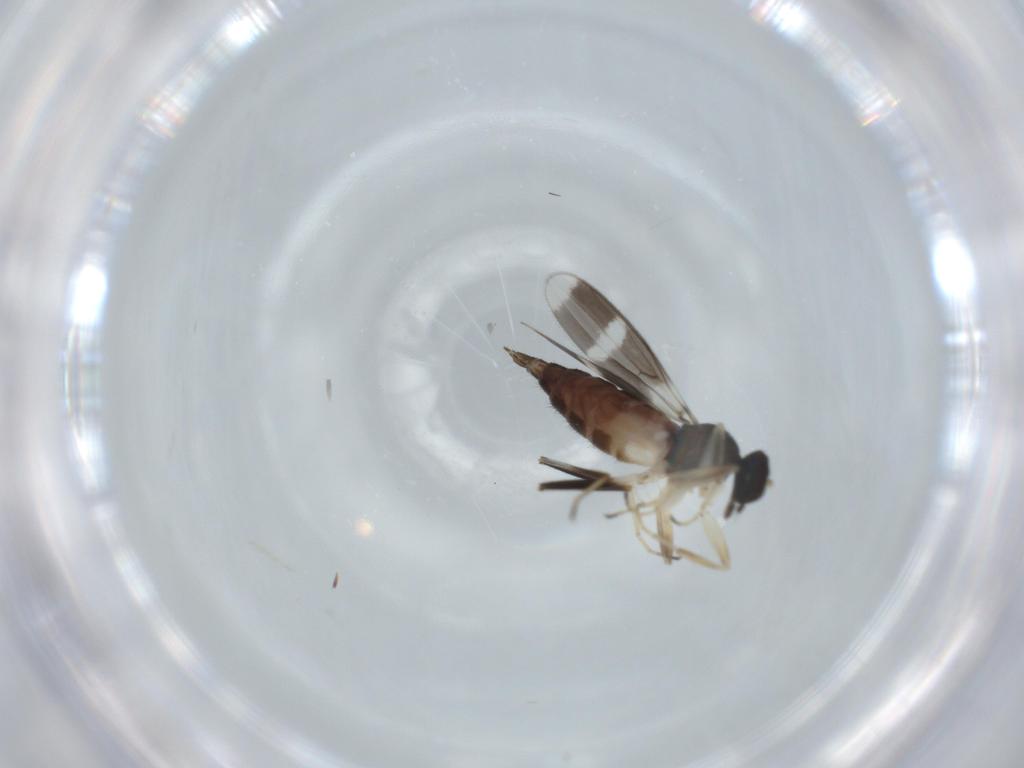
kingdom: Animalia
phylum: Arthropoda
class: Insecta
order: Diptera
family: Hybotidae
